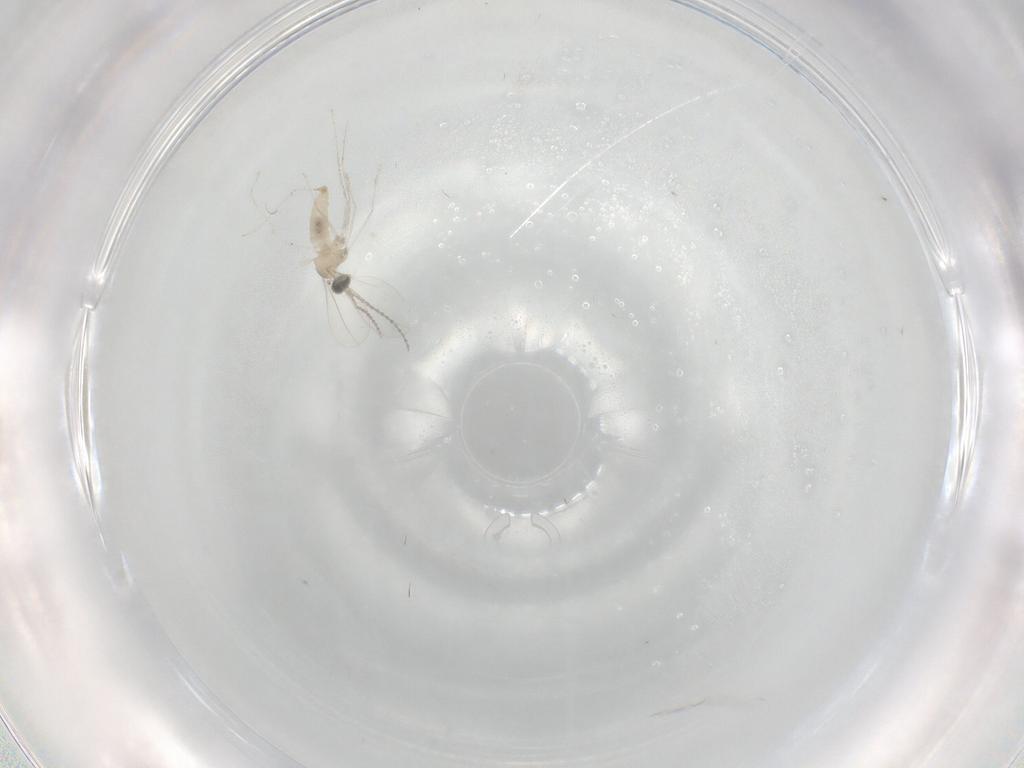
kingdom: Animalia
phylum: Arthropoda
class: Insecta
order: Diptera
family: Cecidomyiidae
